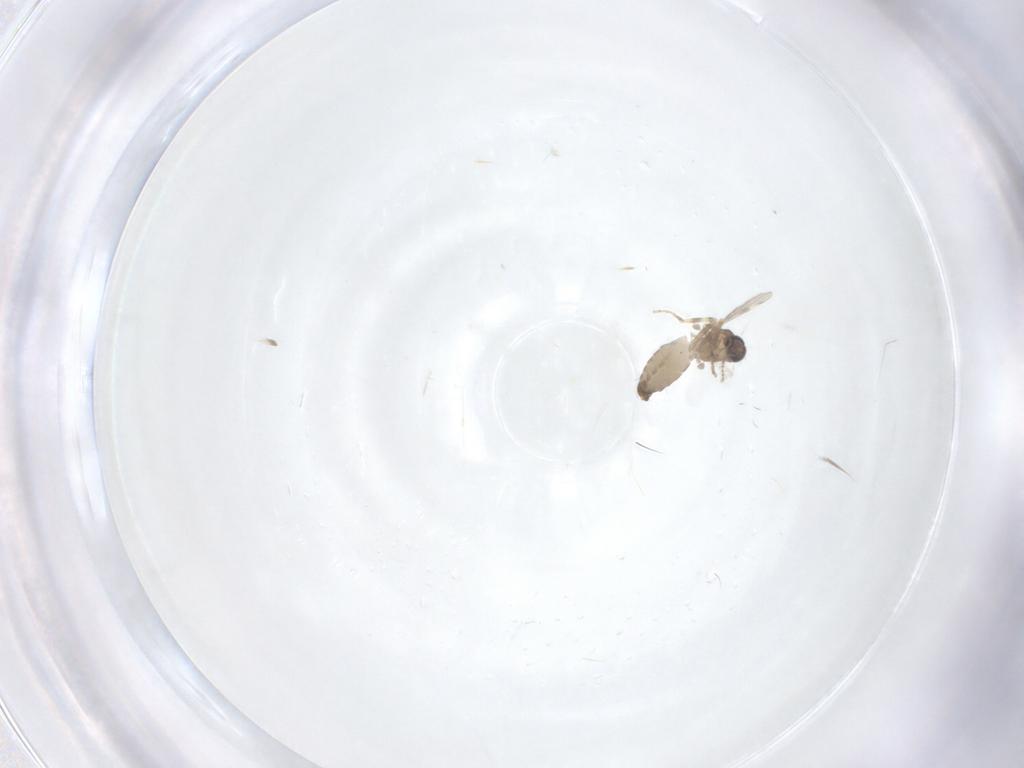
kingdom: Animalia
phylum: Arthropoda
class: Insecta
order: Diptera
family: Ceratopogonidae
